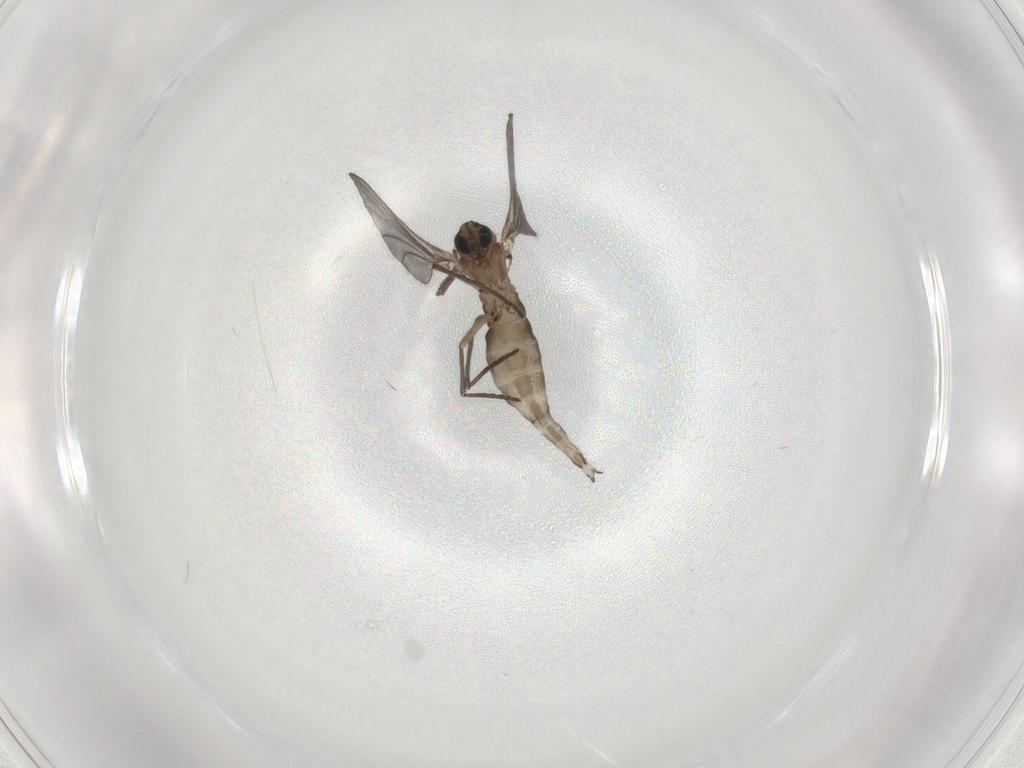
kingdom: Animalia
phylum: Arthropoda
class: Insecta
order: Diptera
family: Sciaridae
